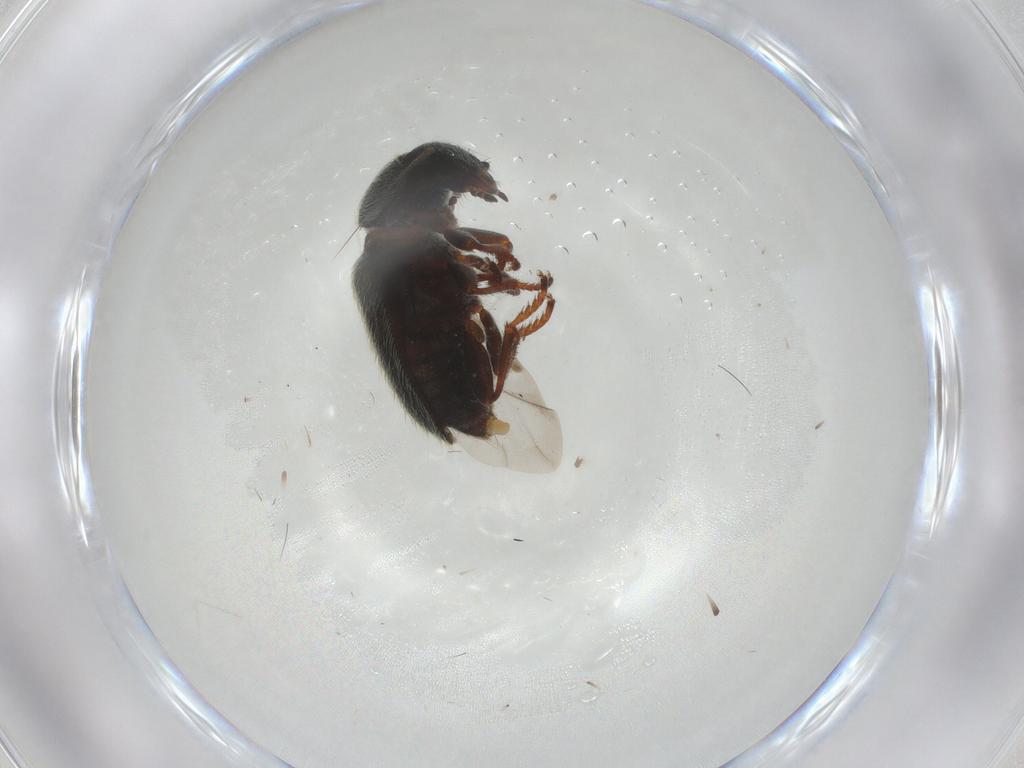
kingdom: Animalia
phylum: Arthropoda
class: Insecta
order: Coleoptera
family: Melyridae
